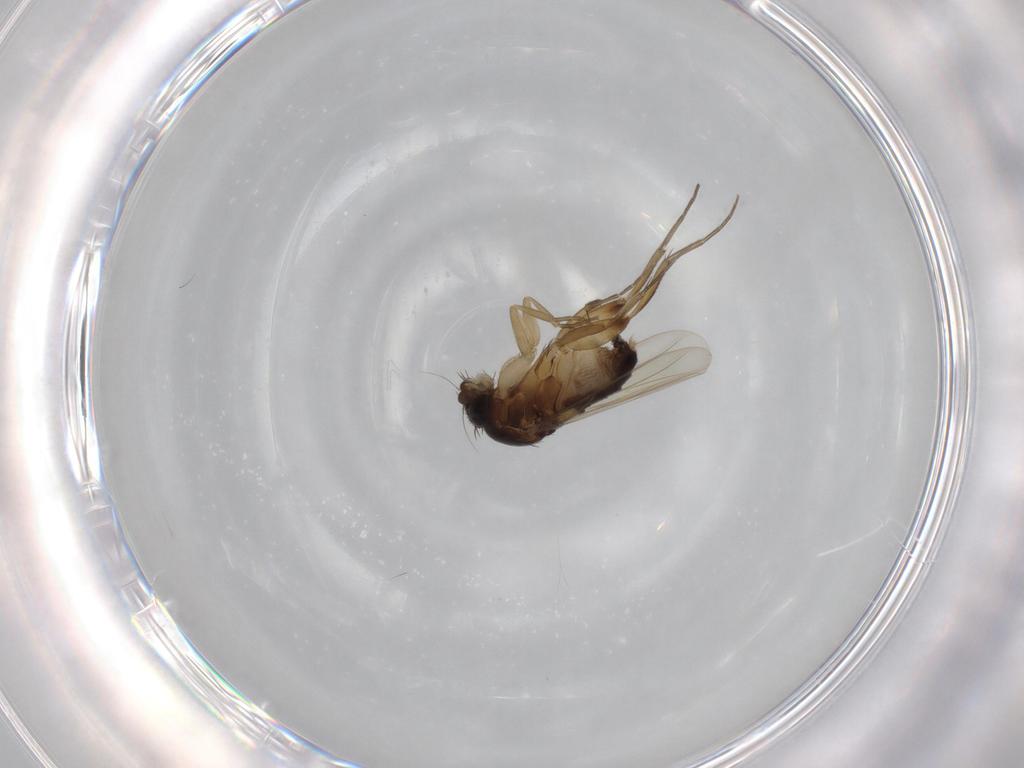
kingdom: Animalia
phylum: Arthropoda
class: Insecta
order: Diptera
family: Phoridae
